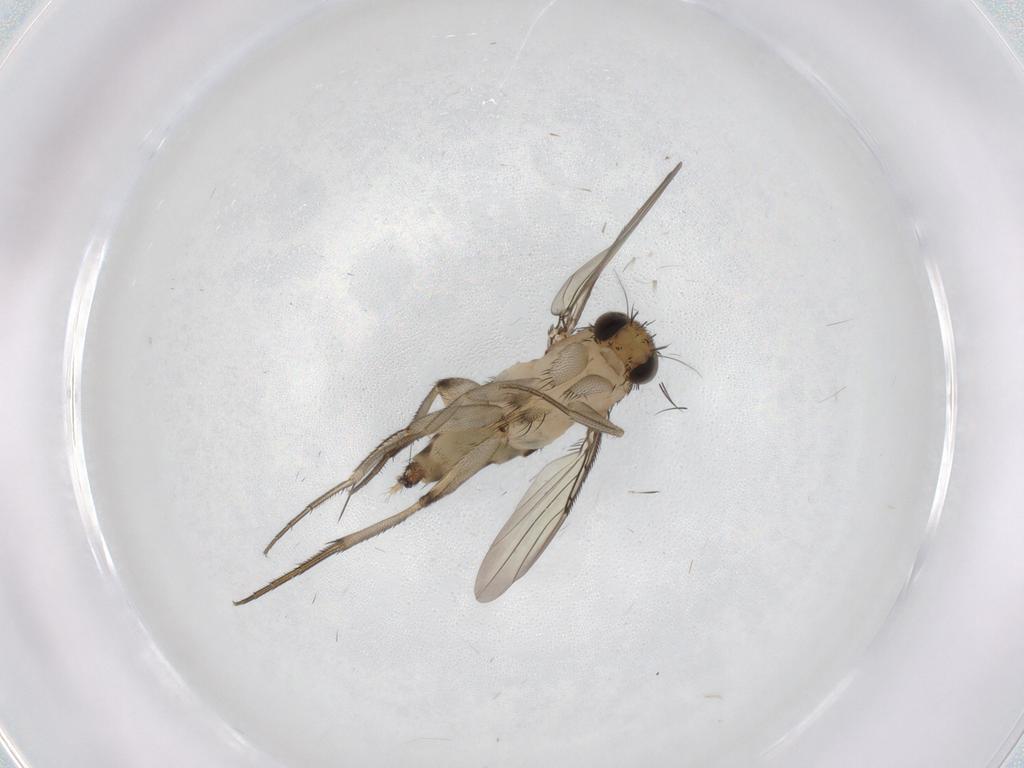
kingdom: Animalia
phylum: Arthropoda
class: Insecta
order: Diptera
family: Phoridae
